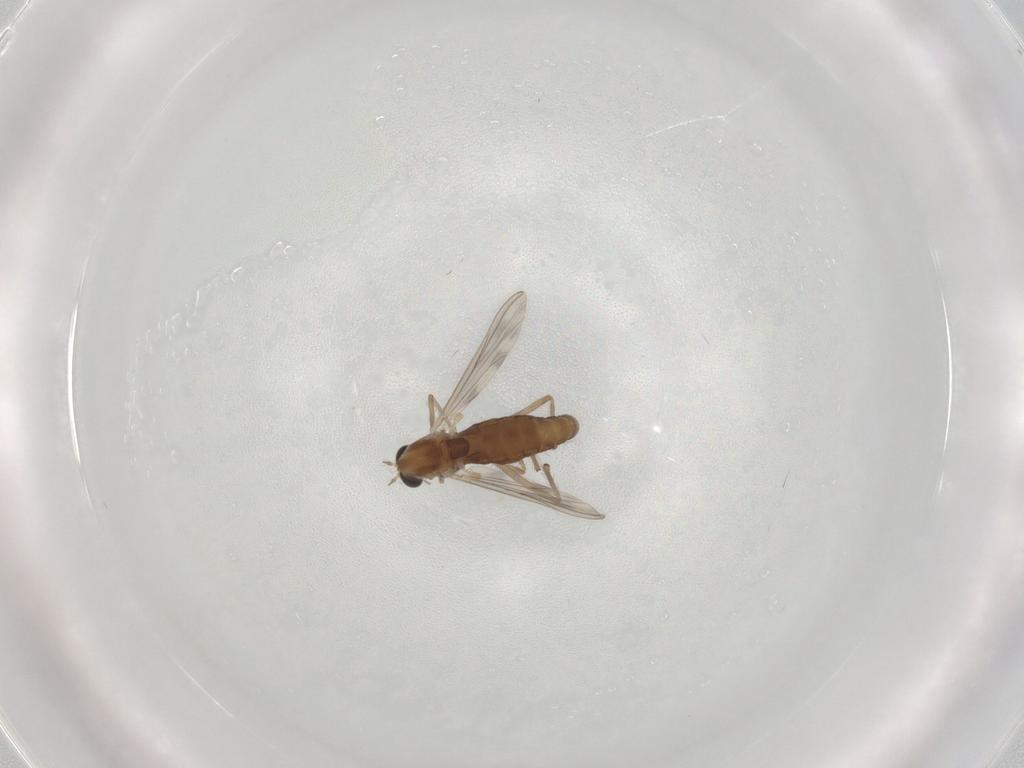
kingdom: Animalia
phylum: Arthropoda
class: Insecta
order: Diptera
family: Chironomidae
